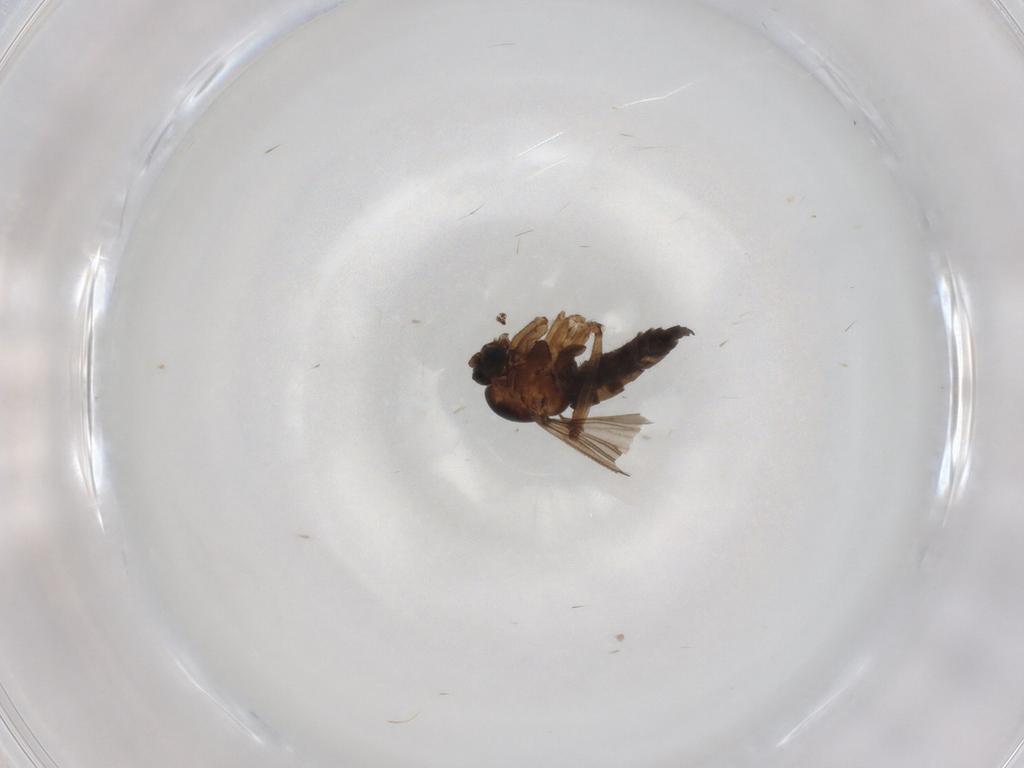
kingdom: Animalia
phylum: Arthropoda
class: Insecta
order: Diptera
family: Sciaridae
